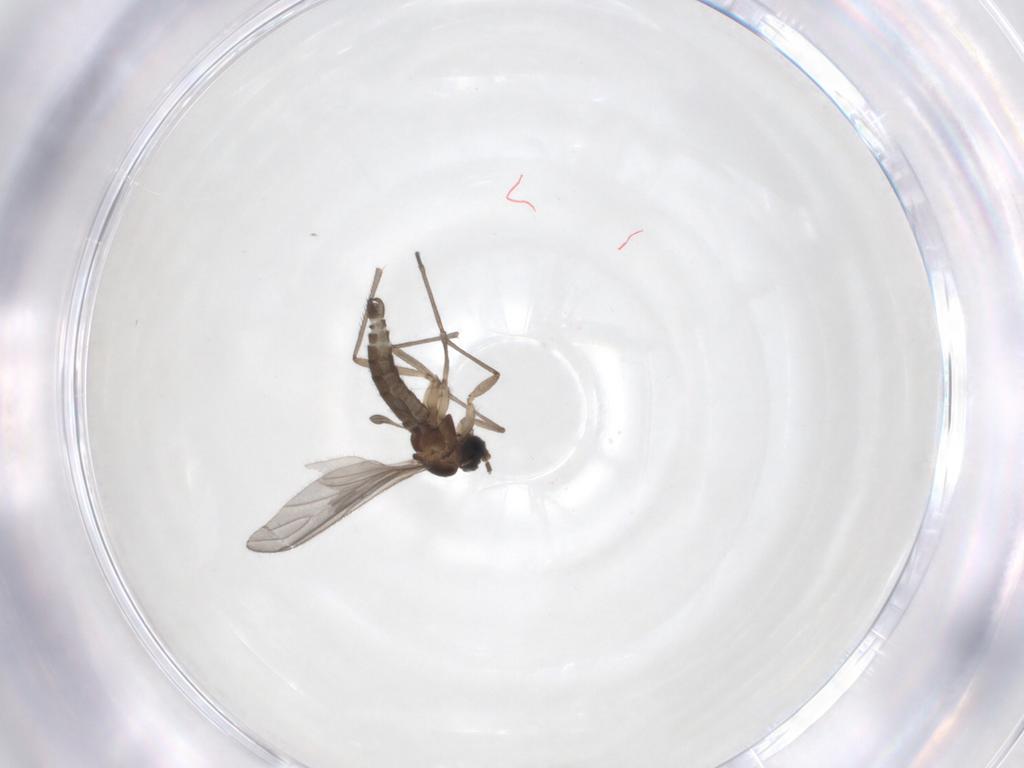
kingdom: Animalia
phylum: Arthropoda
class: Insecta
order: Diptera
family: Sciaridae
